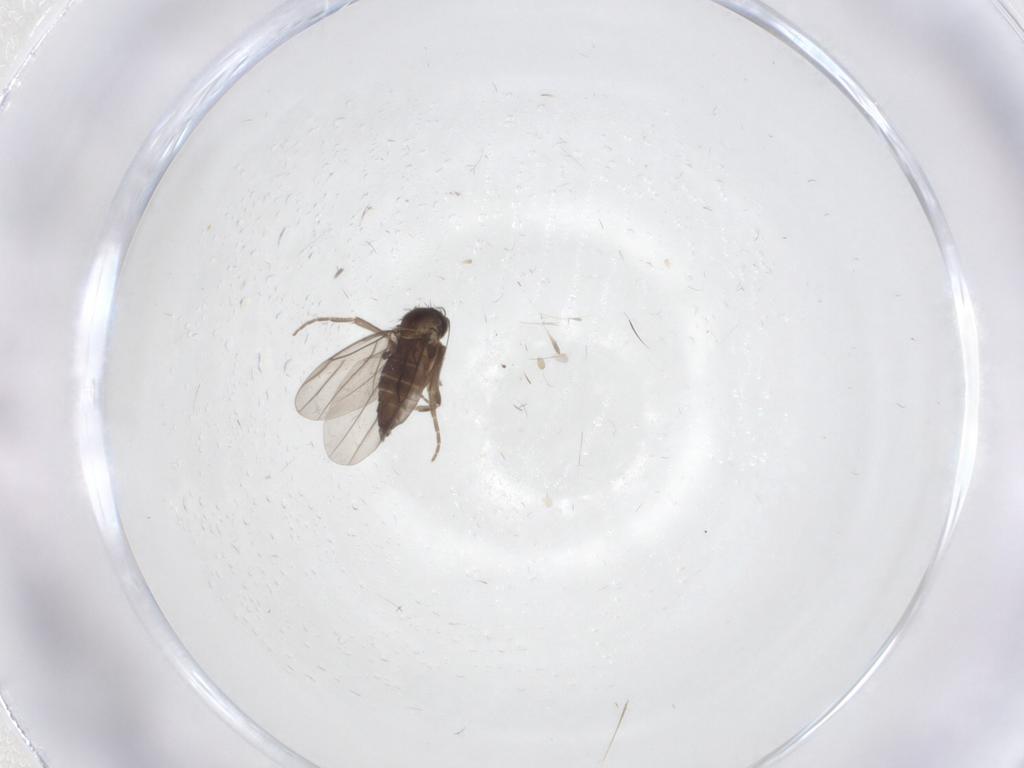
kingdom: Animalia
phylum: Arthropoda
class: Insecta
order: Diptera
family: Phoridae
